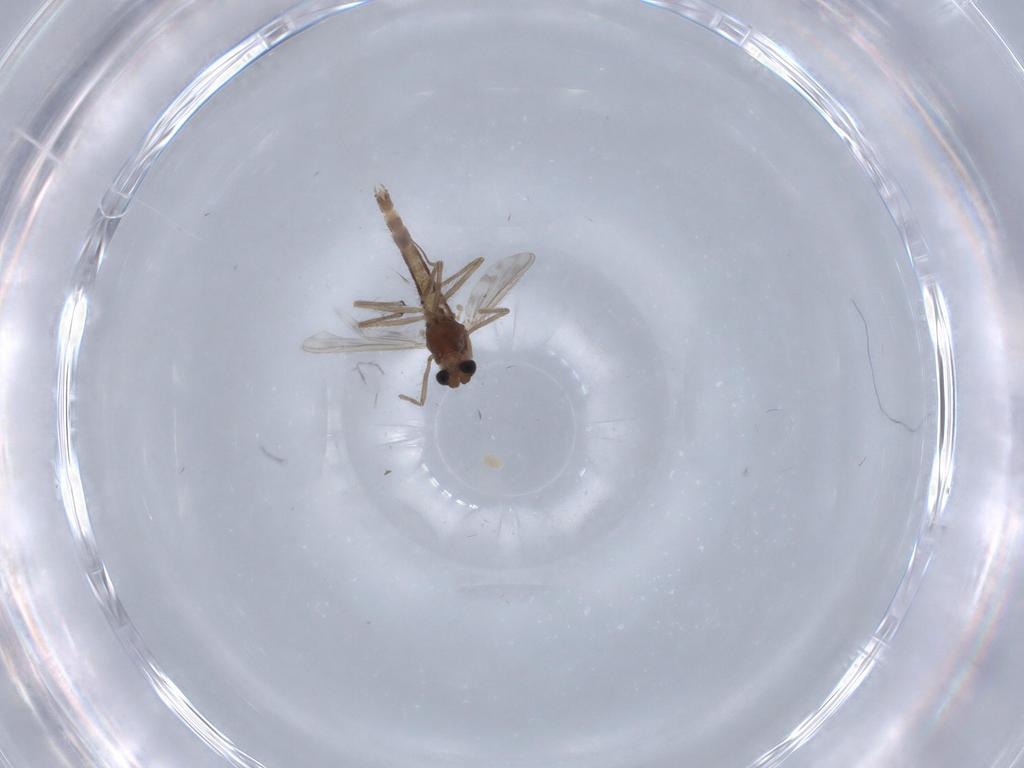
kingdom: Animalia
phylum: Arthropoda
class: Insecta
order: Diptera
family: Chironomidae
